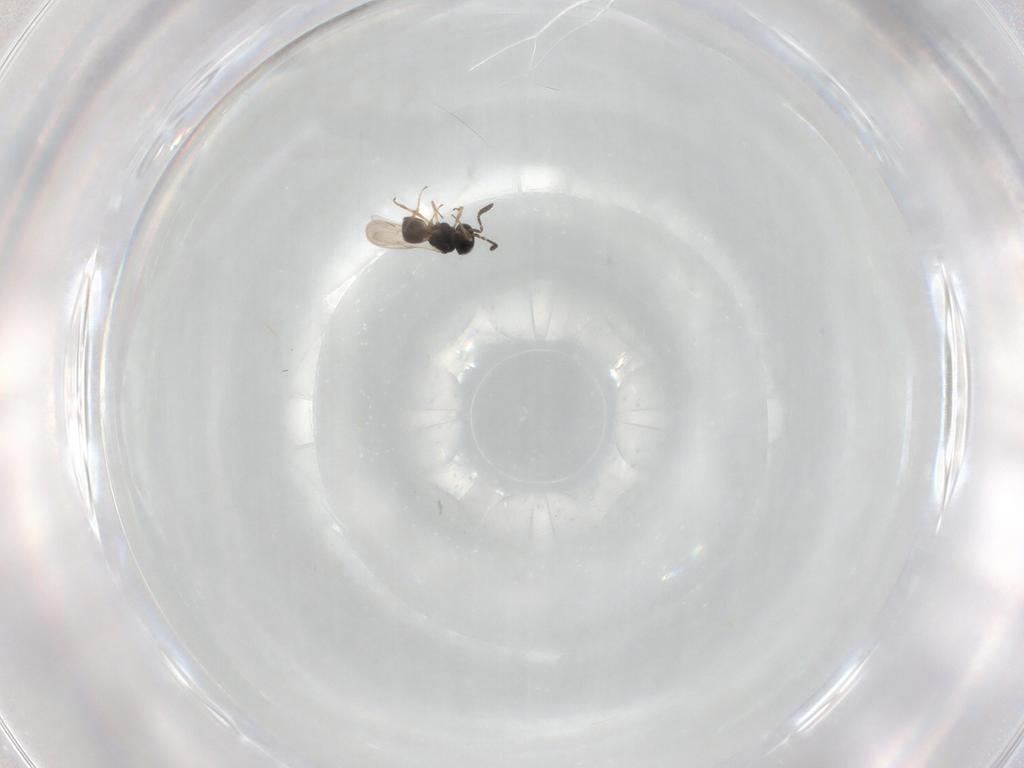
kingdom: Animalia
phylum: Arthropoda
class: Insecta
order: Hymenoptera
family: Scelionidae
